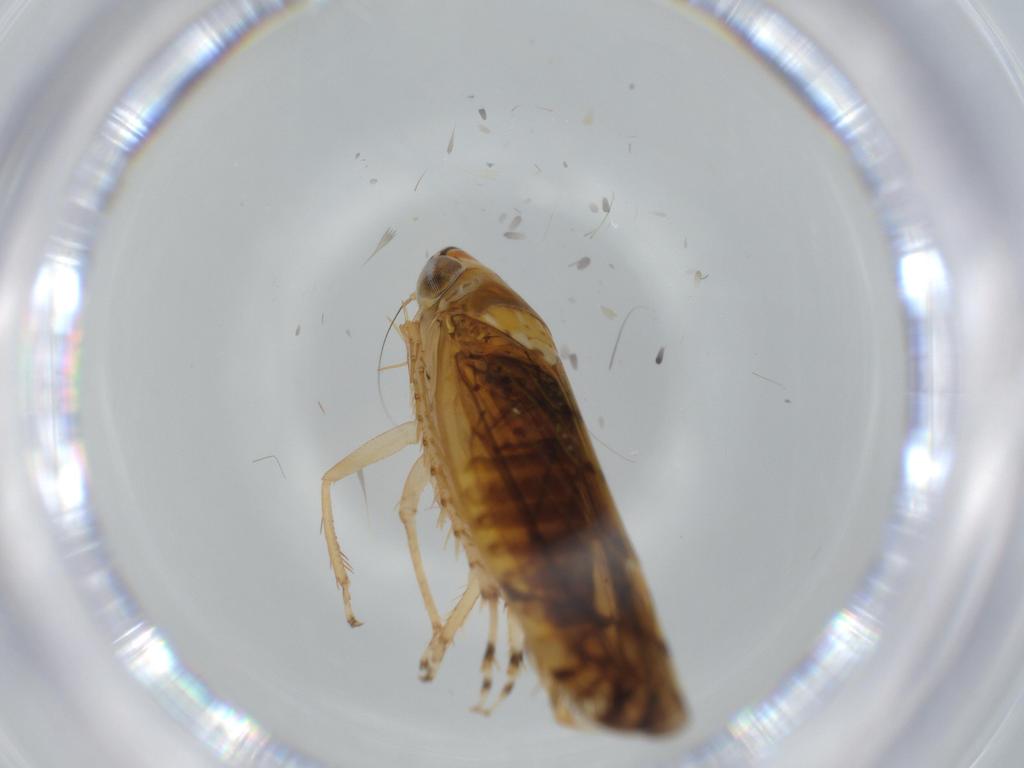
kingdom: Animalia
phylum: Arthropoda
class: Insecta
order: Hemiptera
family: Cicadellidae
